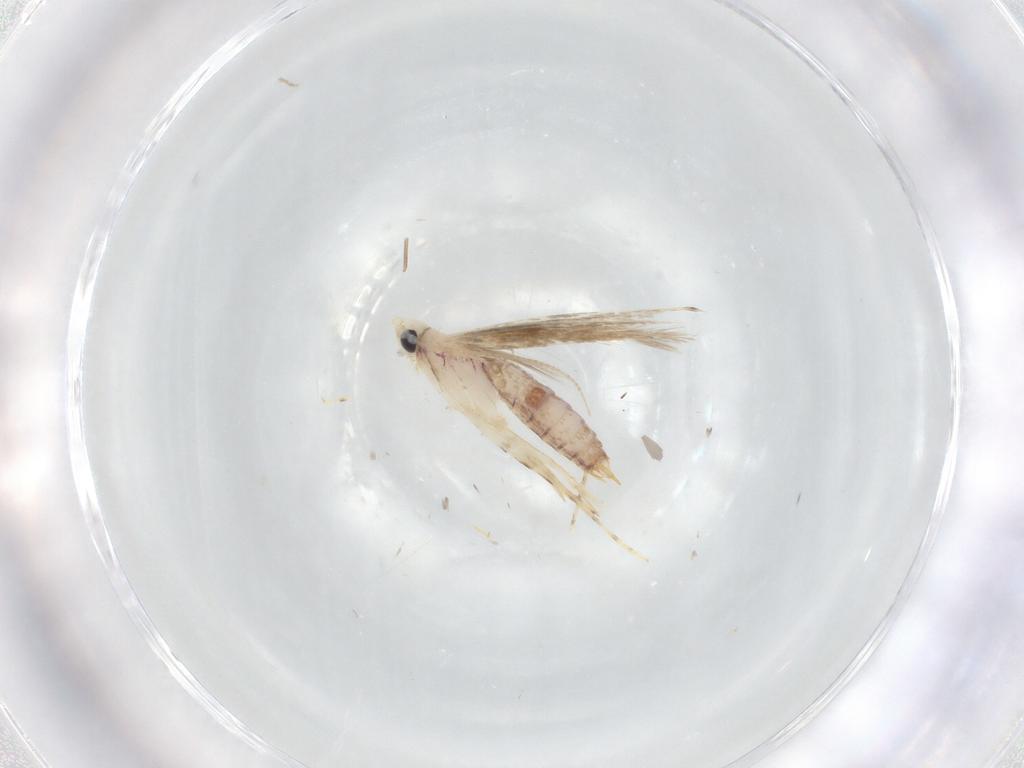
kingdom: Animalia
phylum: Arthropoda
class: Insecta
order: Lepidoptera
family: Lyonetiidae
